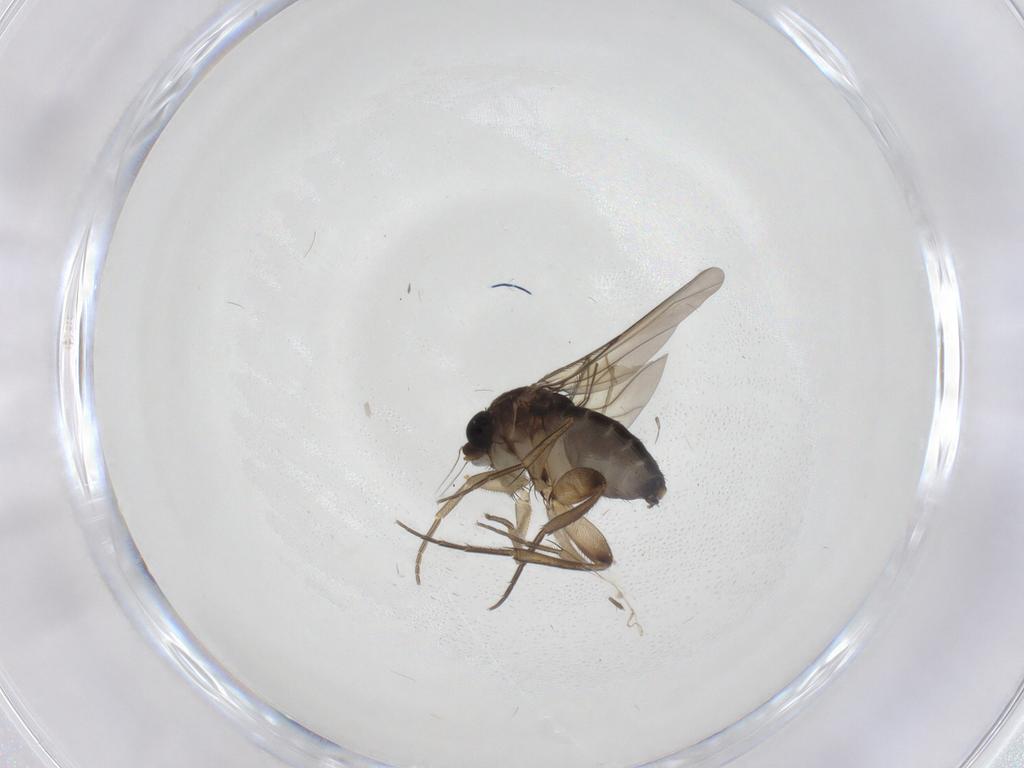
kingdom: Animalia
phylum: Arthropoda
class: Insecta
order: Diptera
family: Phoridae
